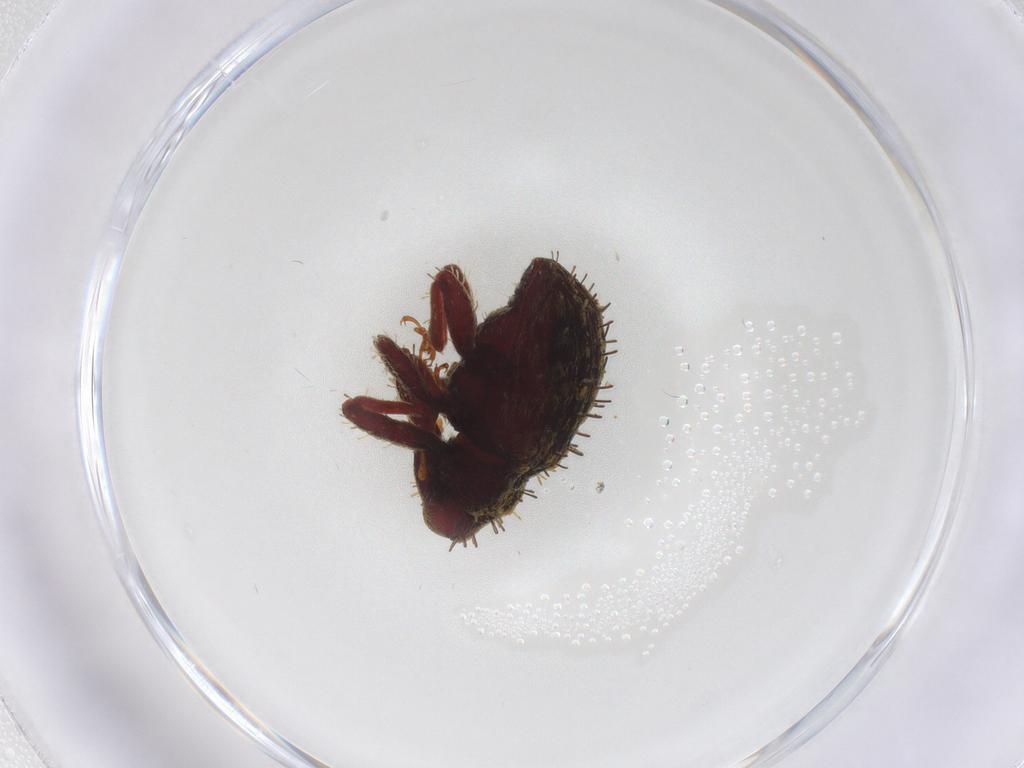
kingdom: Animalia
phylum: Arthropoda
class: Insecta
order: Coleoptera
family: Curculionidae
